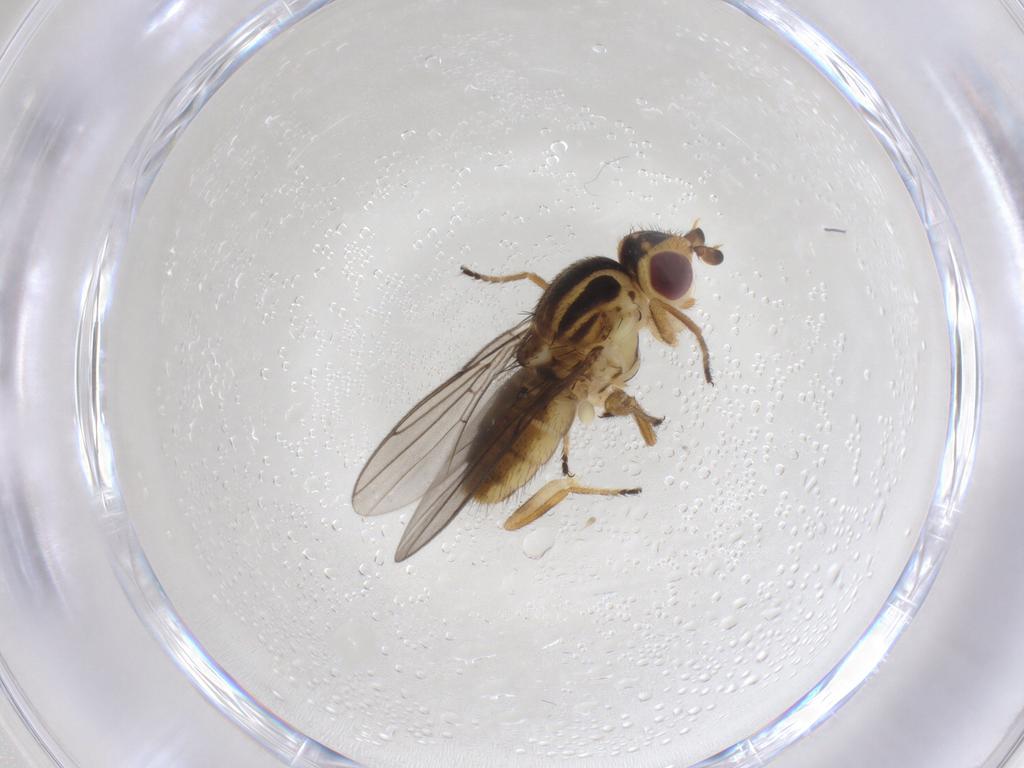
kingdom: Animalia
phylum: Arthropoda
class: Insecta
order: Diptera
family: Chloropidae
